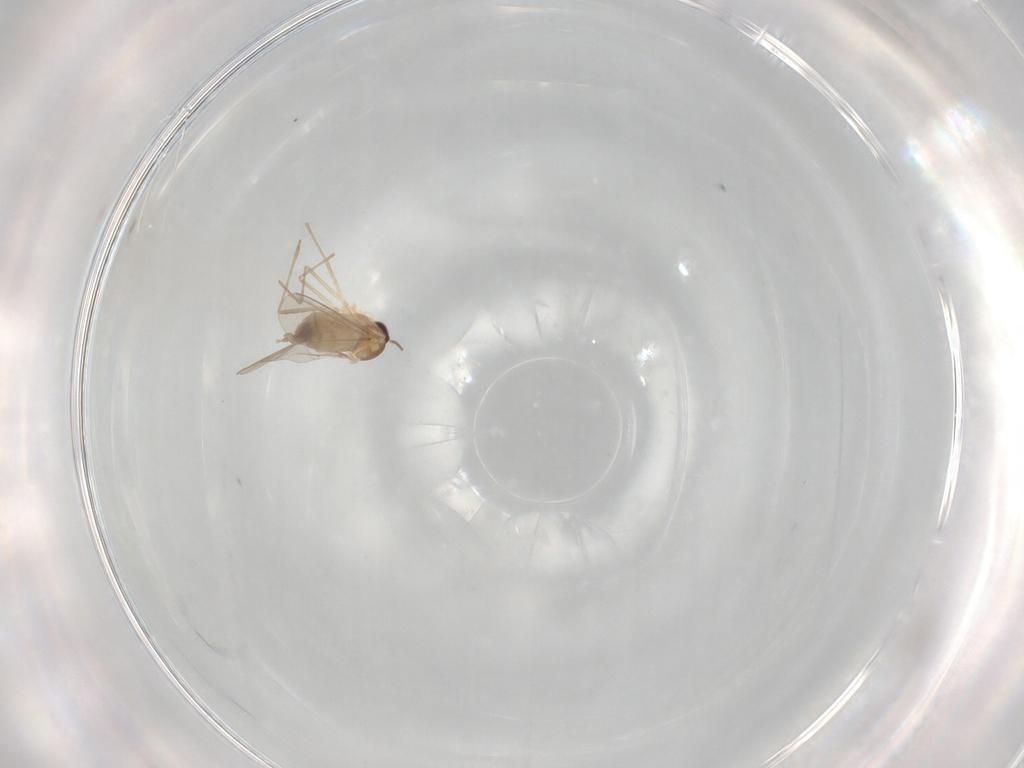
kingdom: Animalia
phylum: Arthropoda
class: Insecta
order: Diptera
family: Cecidomyiidae
